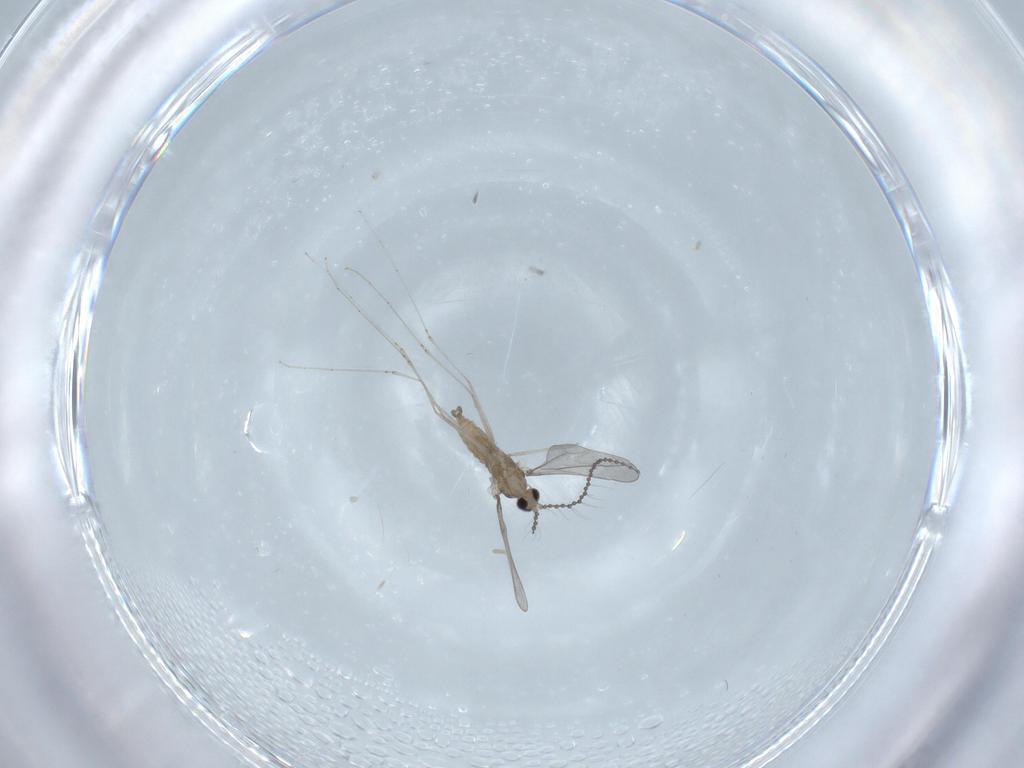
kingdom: Animalia
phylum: Arthropoda
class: Insecta
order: Diptera
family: Cecidomyiidae
